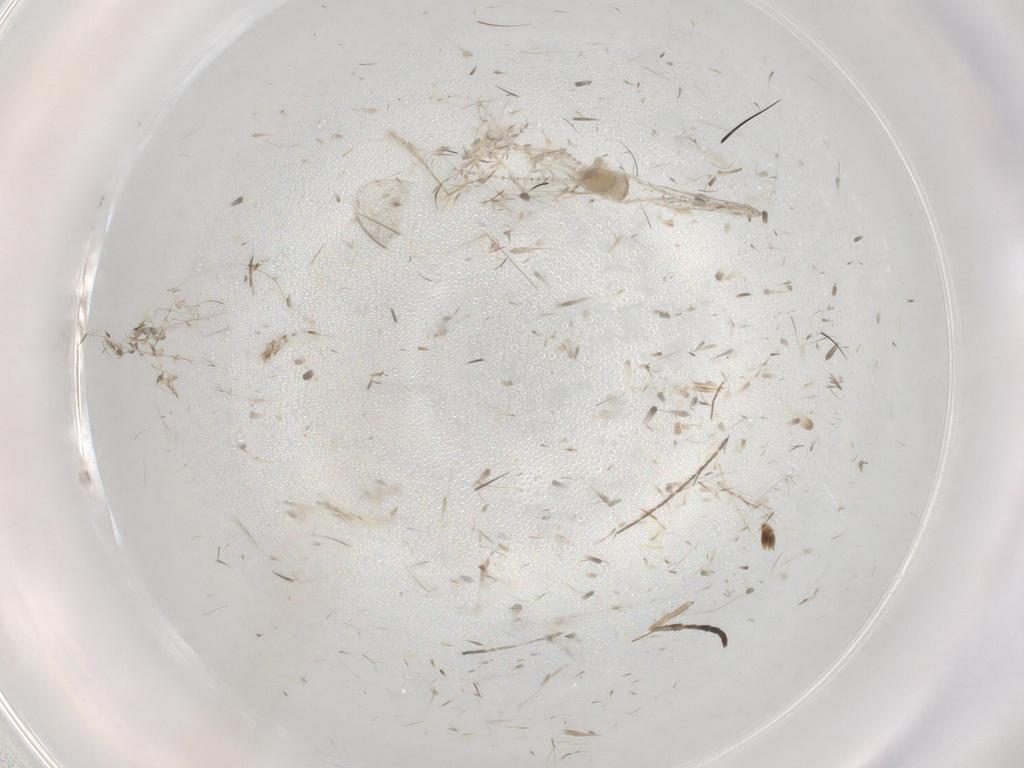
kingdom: Animalia
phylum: Arthropoda
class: Insecta
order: Diptera
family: Cecidomyiidae
